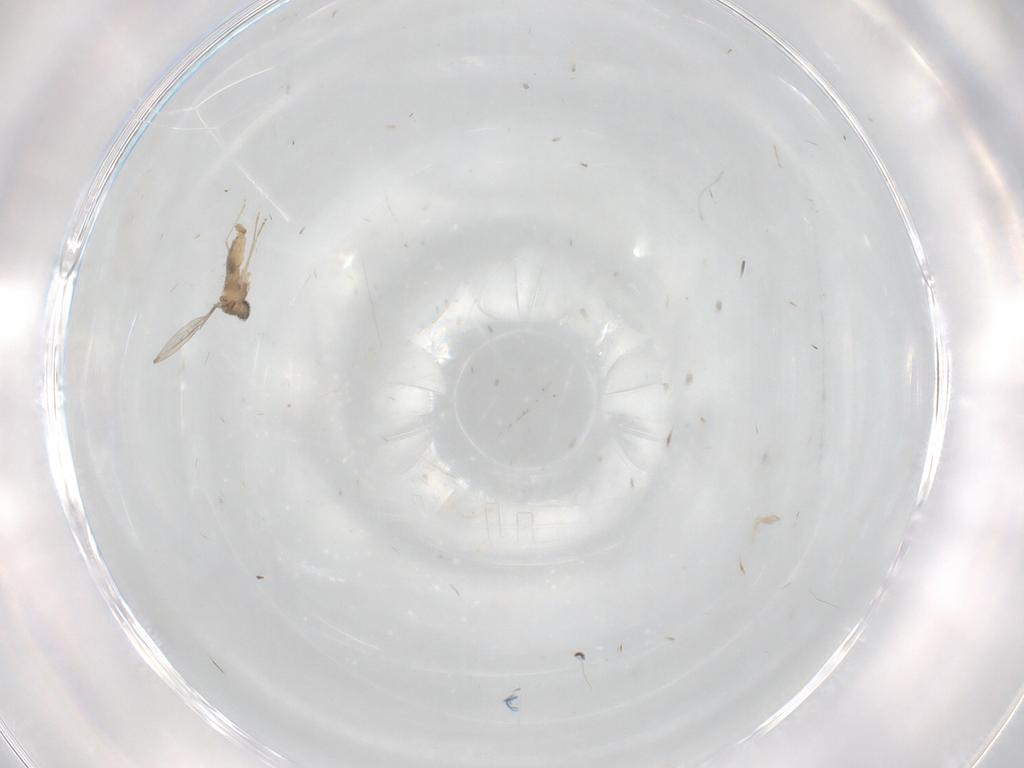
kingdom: Animalia
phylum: Arthropoda
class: Insecta
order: Diptera
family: Cecidomyiidae
